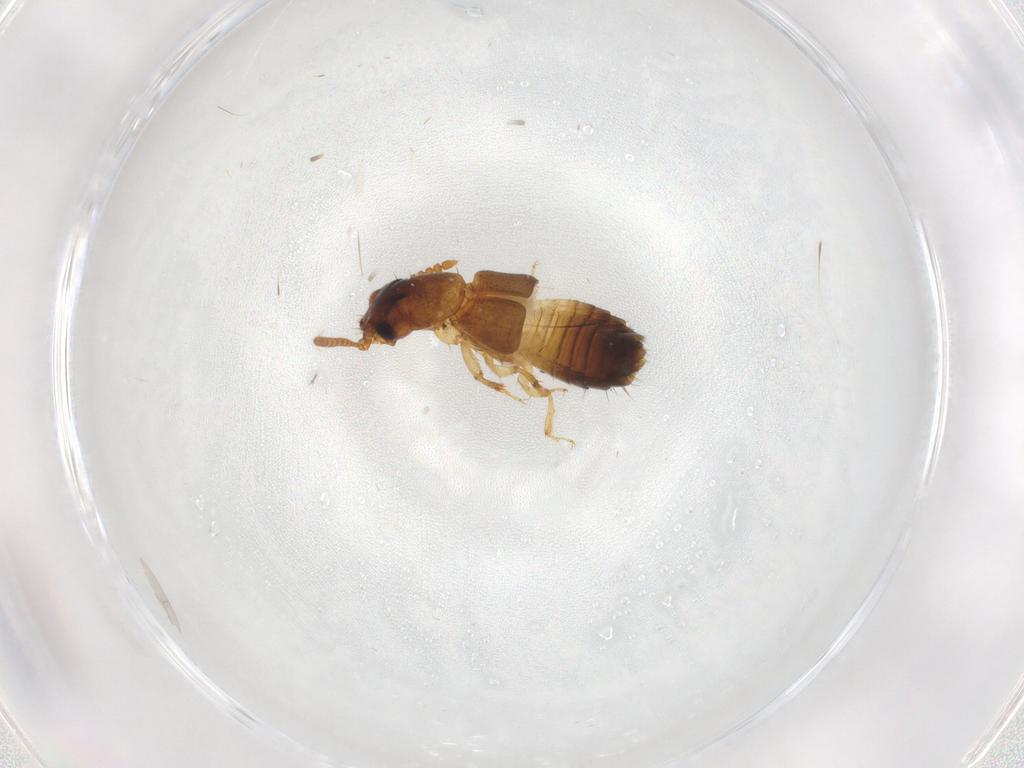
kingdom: Animalia
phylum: Arthropoda
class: Insecta
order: Coleoptera
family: Staphylinidae
